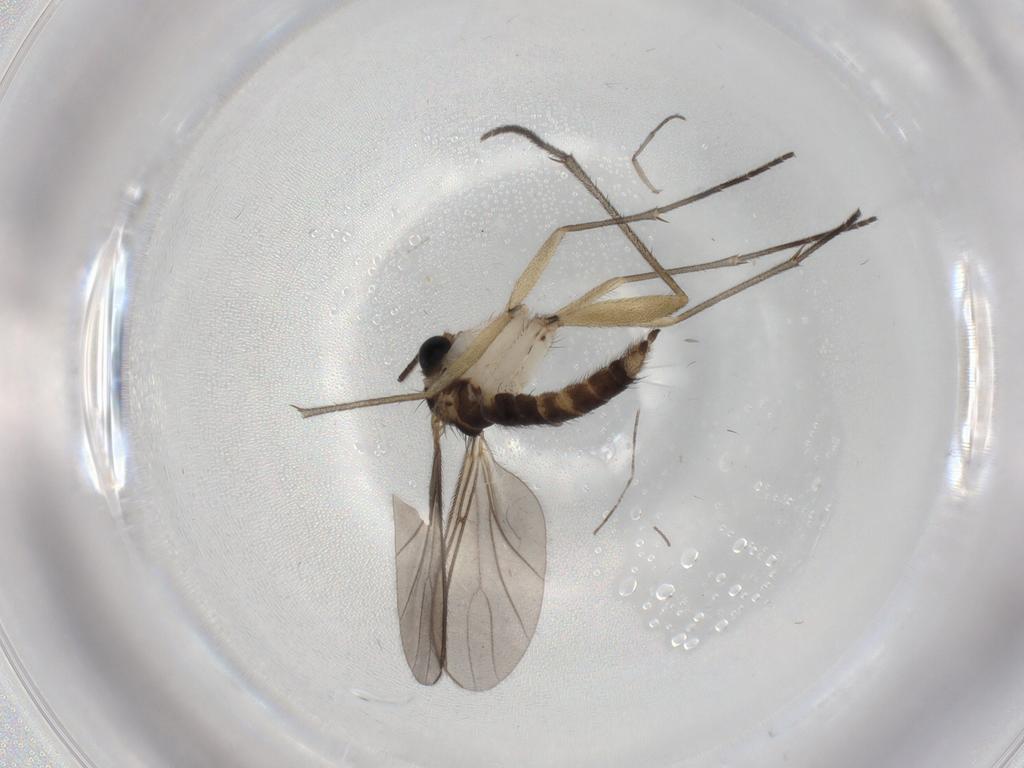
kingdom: Animalia
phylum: Arthropoda
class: Insecta
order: Diptera
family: Sciaridae
